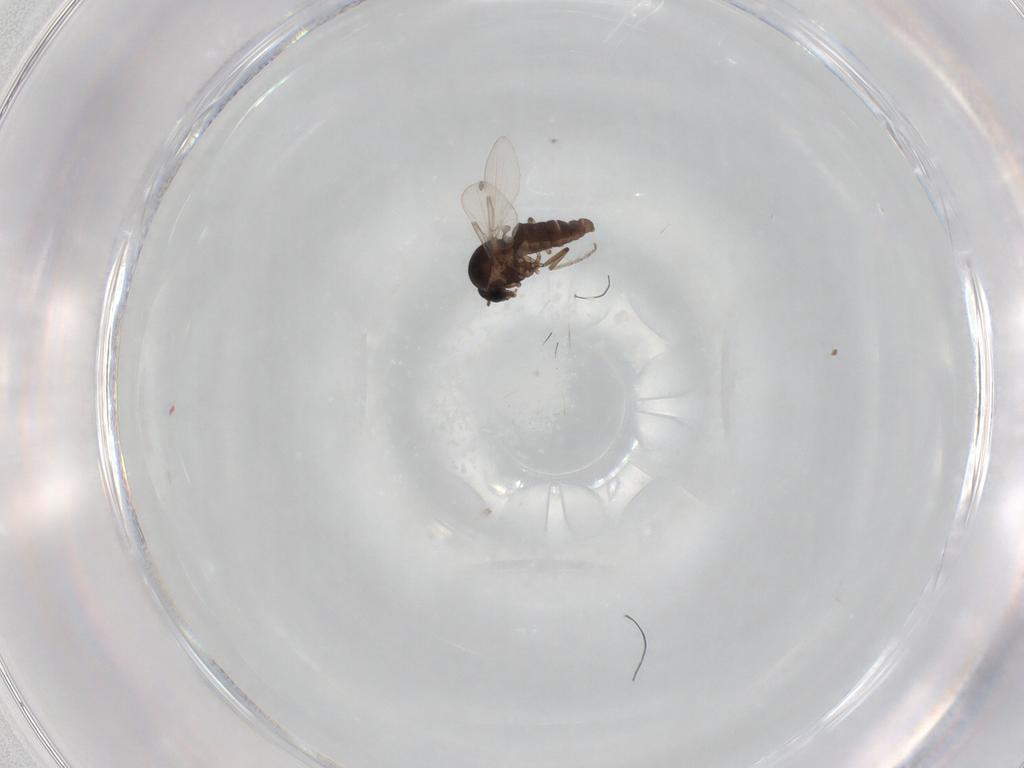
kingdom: Animalia
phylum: Arthropoda
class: Insecta
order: Diptera
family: Ceratopogonidae
